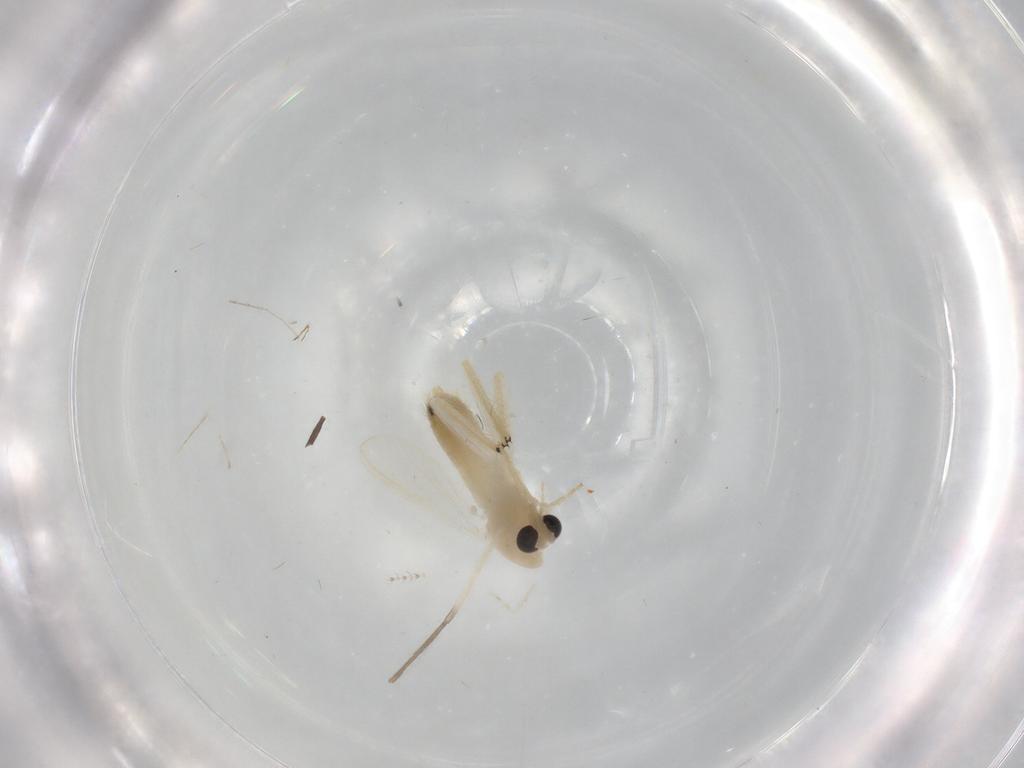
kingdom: Animalia
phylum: Arthropoda
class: Insecta
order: Diptera
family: Chironomidae
